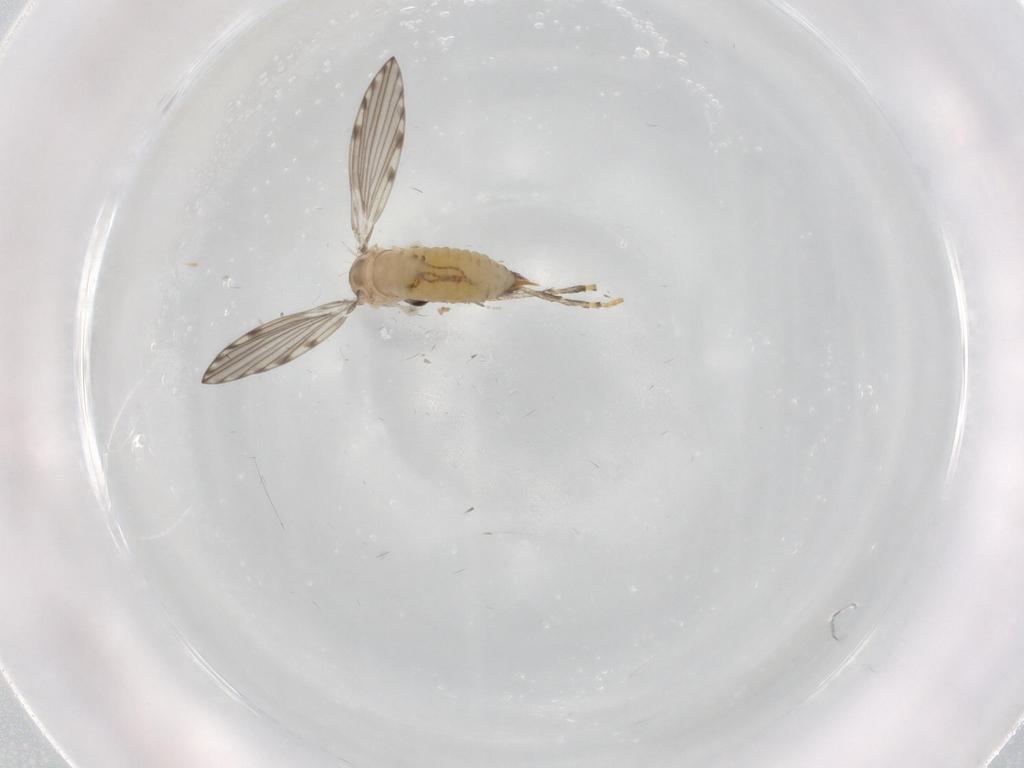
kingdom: Animalia
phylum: Arthropoda
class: Insecta
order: Diptera
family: Psychodidae
